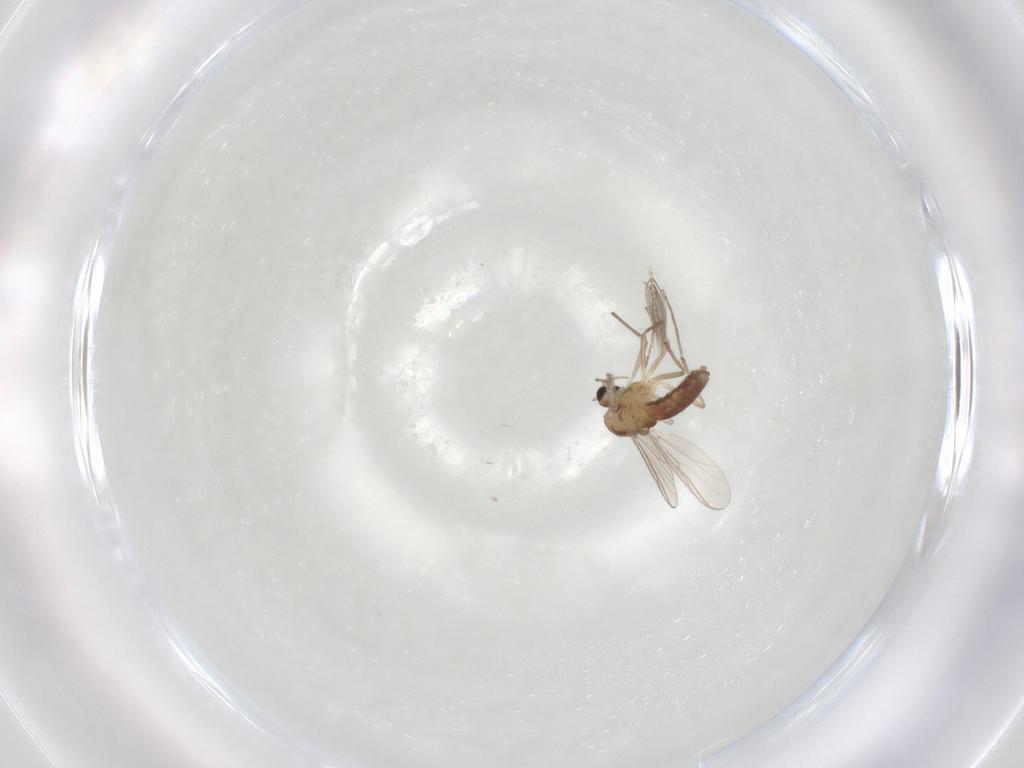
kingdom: Animalia
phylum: Arthropoda
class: Insecta
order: Diptera
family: Ceratopogonidae
